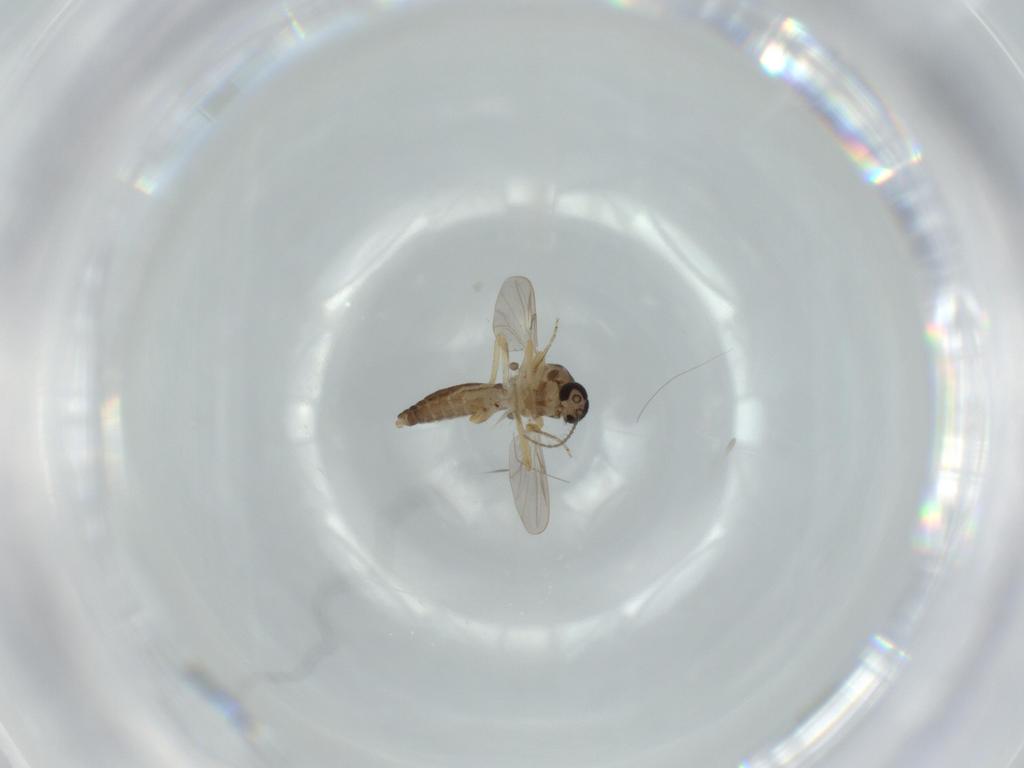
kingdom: Animalia
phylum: Arthropoda
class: Insecta
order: Diptera
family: Ceratopogonidae
